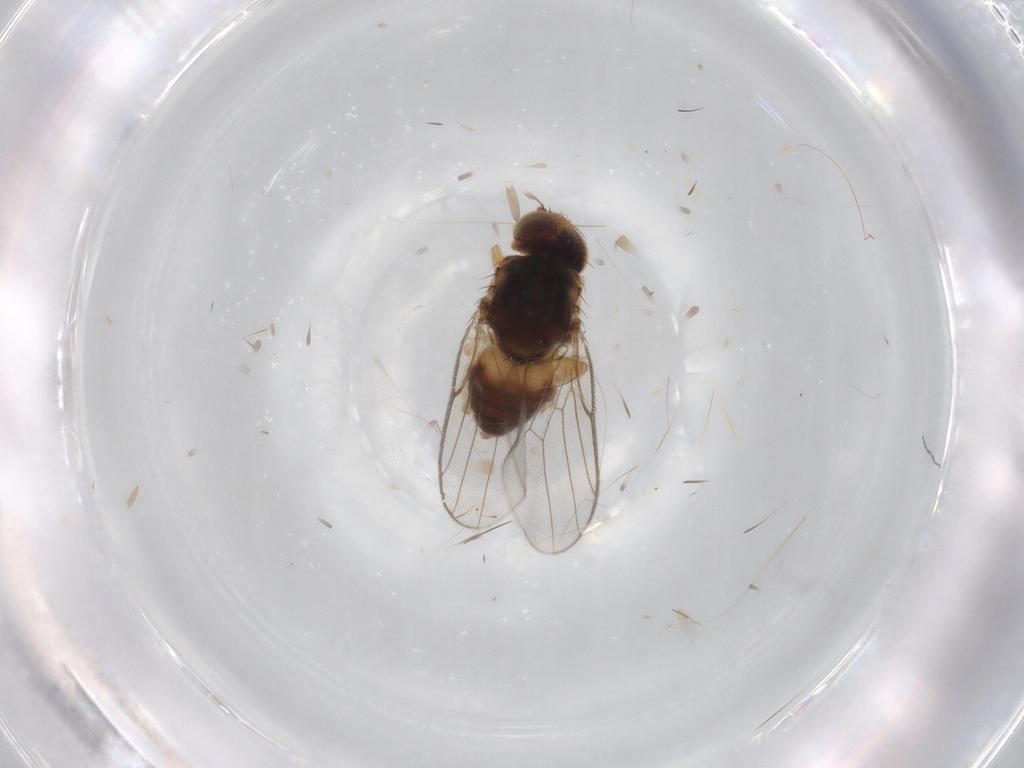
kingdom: Animalia
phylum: Arthropoda
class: Insecta
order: Diptera
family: Chloropidae
